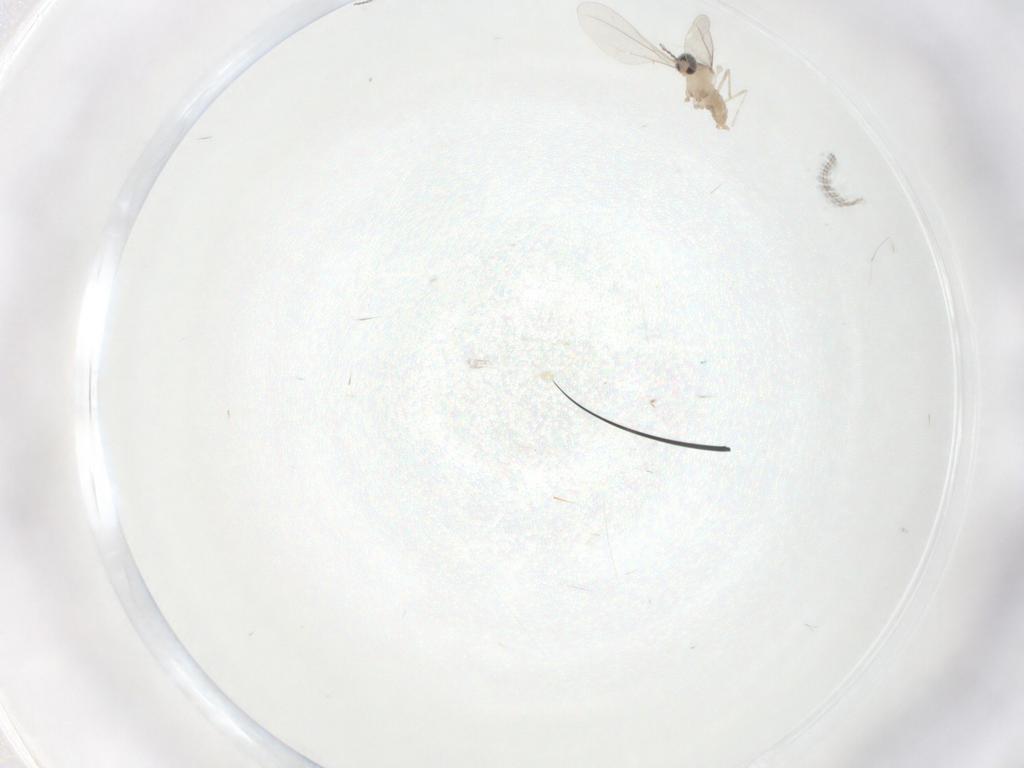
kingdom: Animalia
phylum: Arthropoda
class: Insecta
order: Diptera
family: Cecidomyiidae
